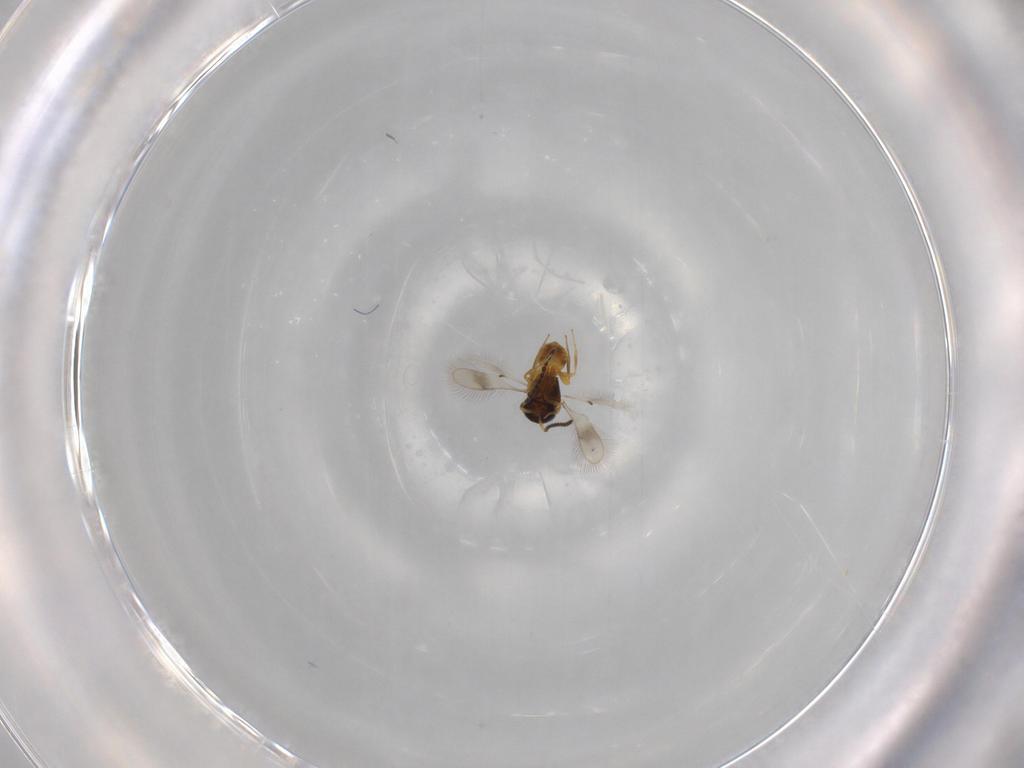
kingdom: Animalia
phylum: Arthropoda
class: Insecta
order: Hymenoptera
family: Scelionidae
